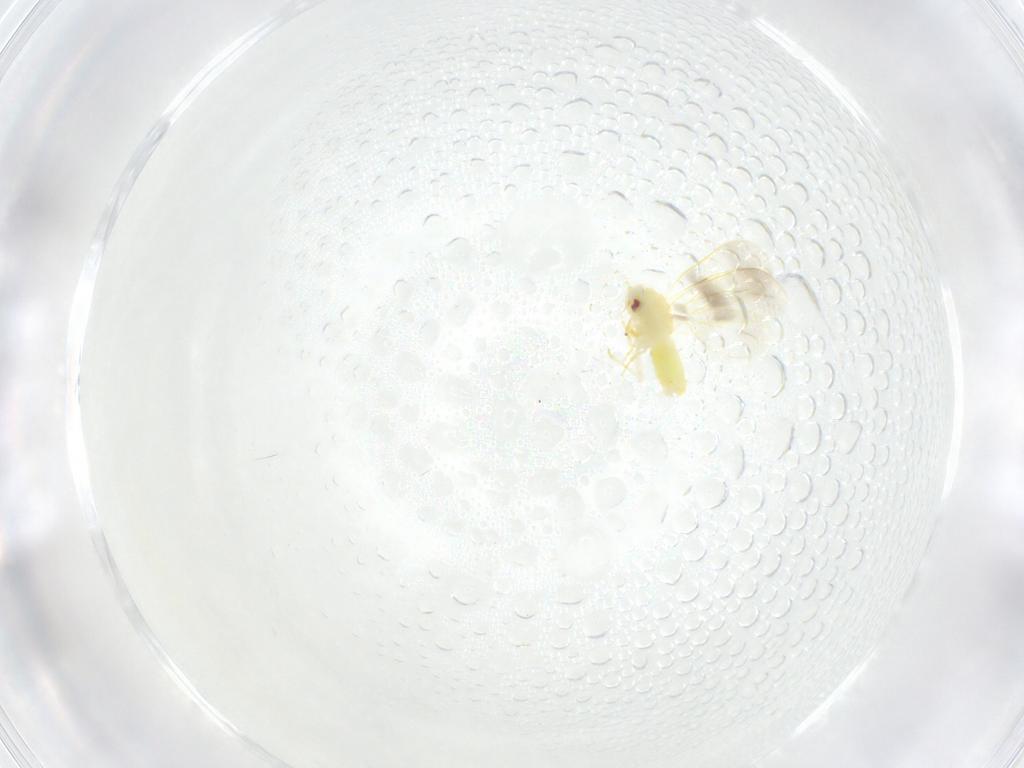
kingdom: Animalia
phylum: Arthropoda
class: Insecta
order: Hemiptera
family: Aleyrodidae
